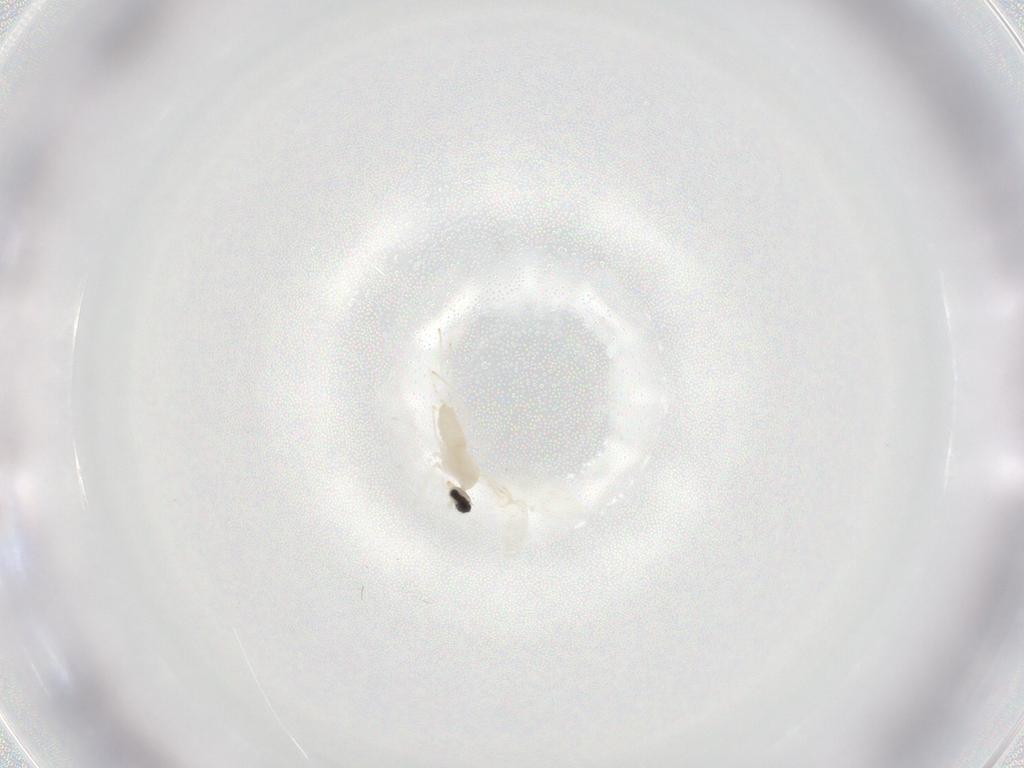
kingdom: Animalia
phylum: Arthropoda
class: Insecta
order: Diptera
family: Cecidomyiidae
